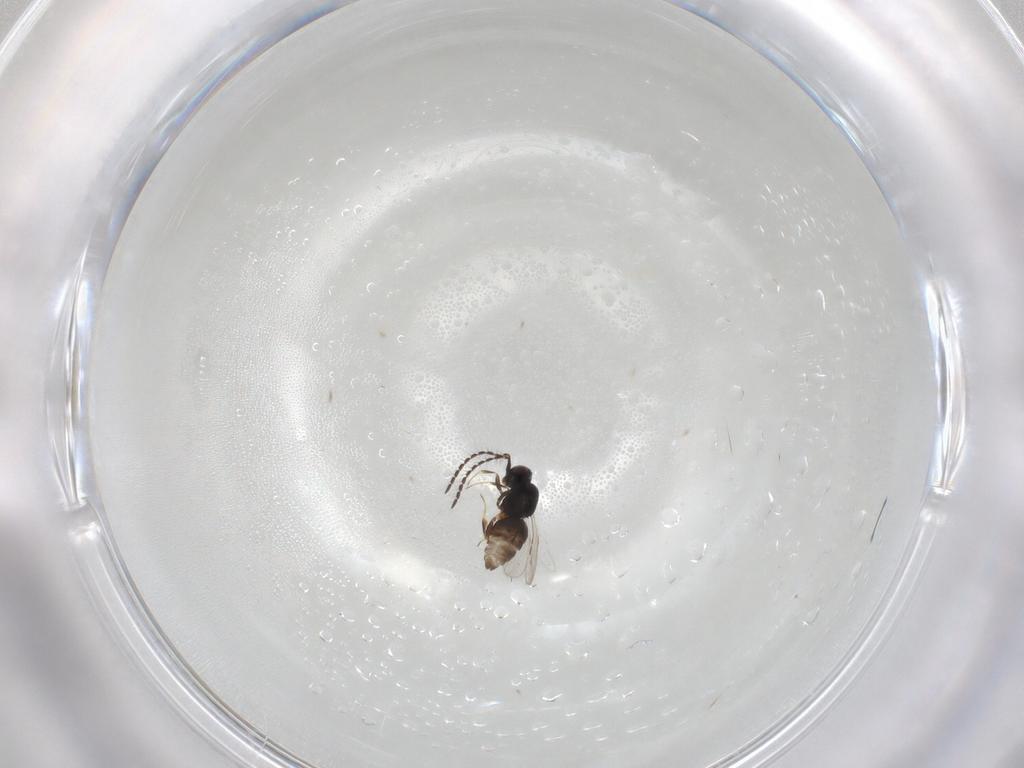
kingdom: Animalia
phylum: Arthropoda
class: Insecta
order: Hymenoptera
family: Ceraphronidae
